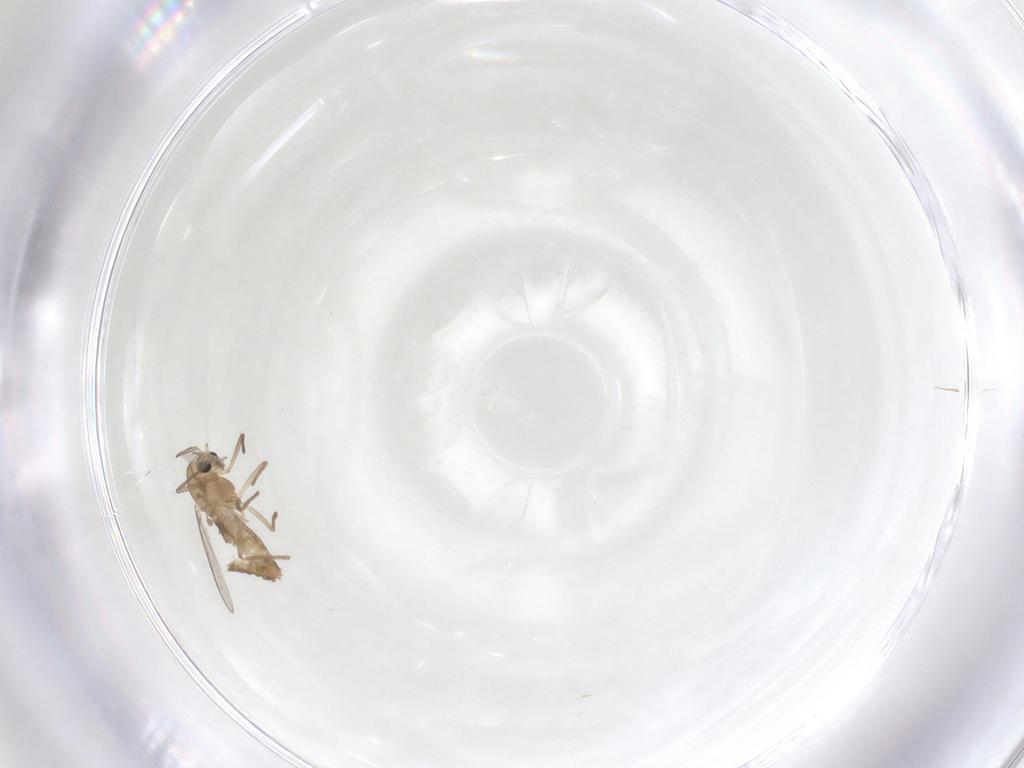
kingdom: Animalia
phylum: Arthropoda
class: Insecta
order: Diptera
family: Chironomidae
